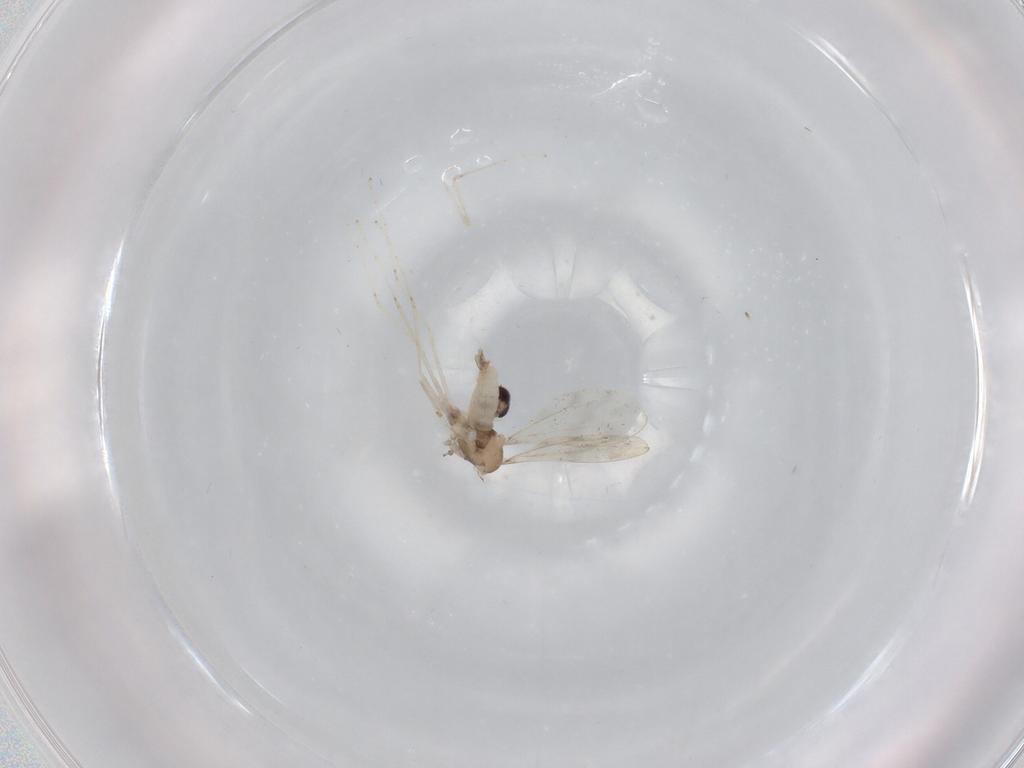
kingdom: Animalia
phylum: Arthropoda
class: Insecta
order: Diptera
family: Cecidomyiidae
